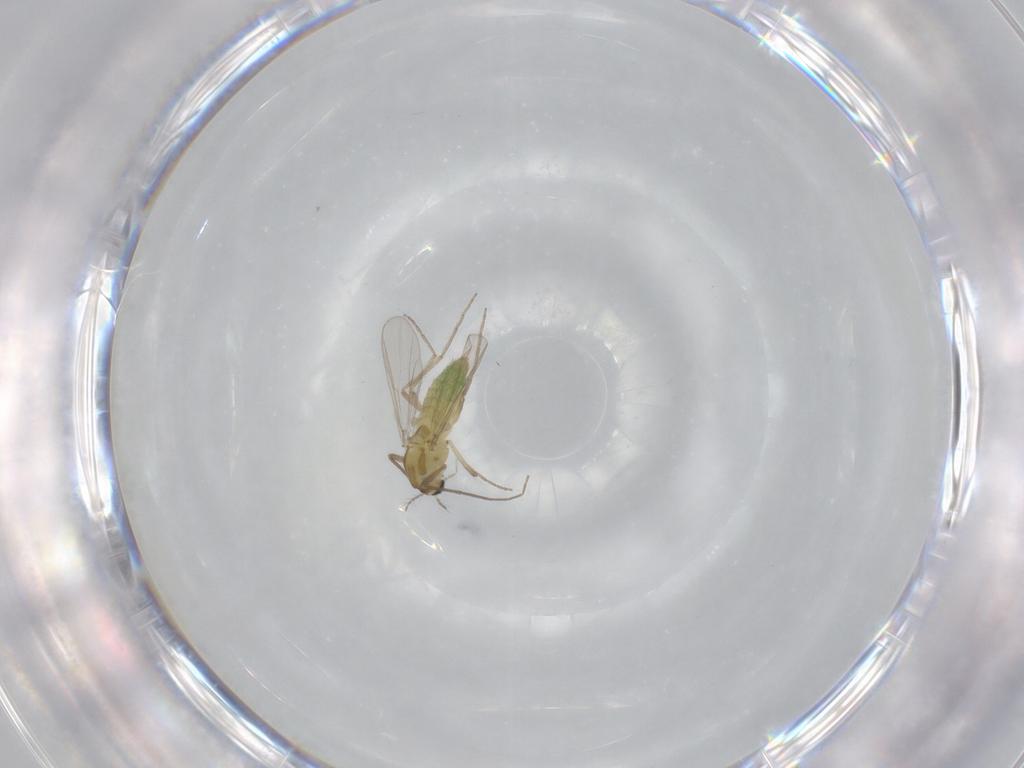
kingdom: Animalia
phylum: Arthropoda
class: Insecta
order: Diptera
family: Chironomidae
